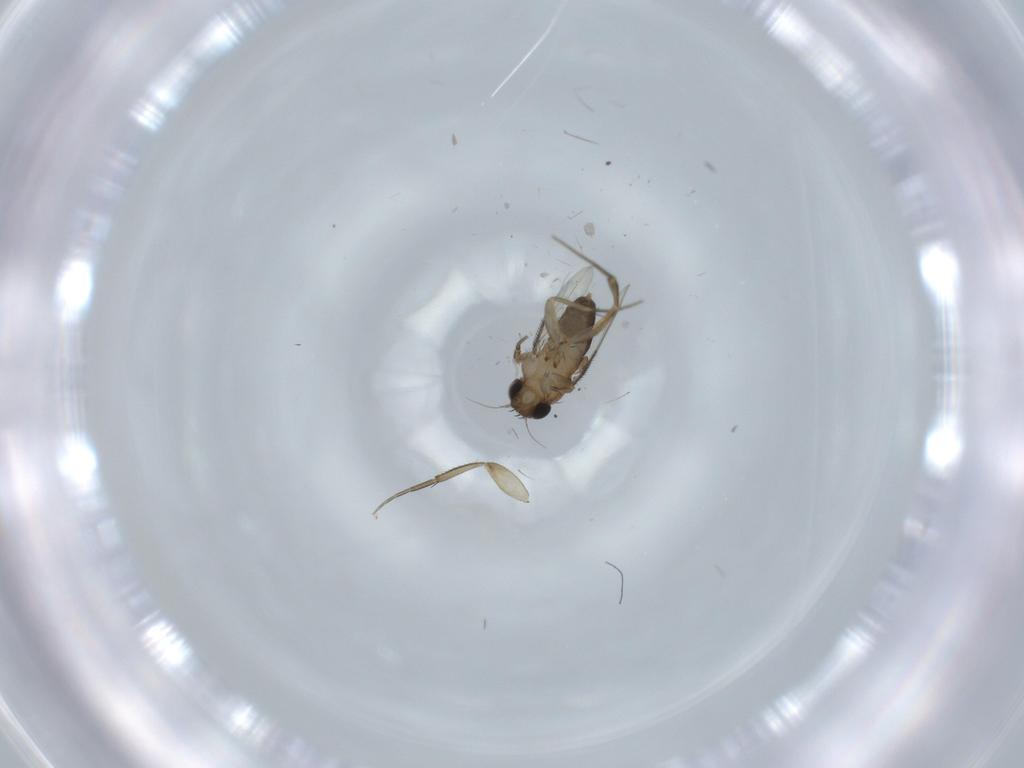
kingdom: Animalia
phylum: Arthropoda
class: Insecta
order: Diptera
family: Phoridae
